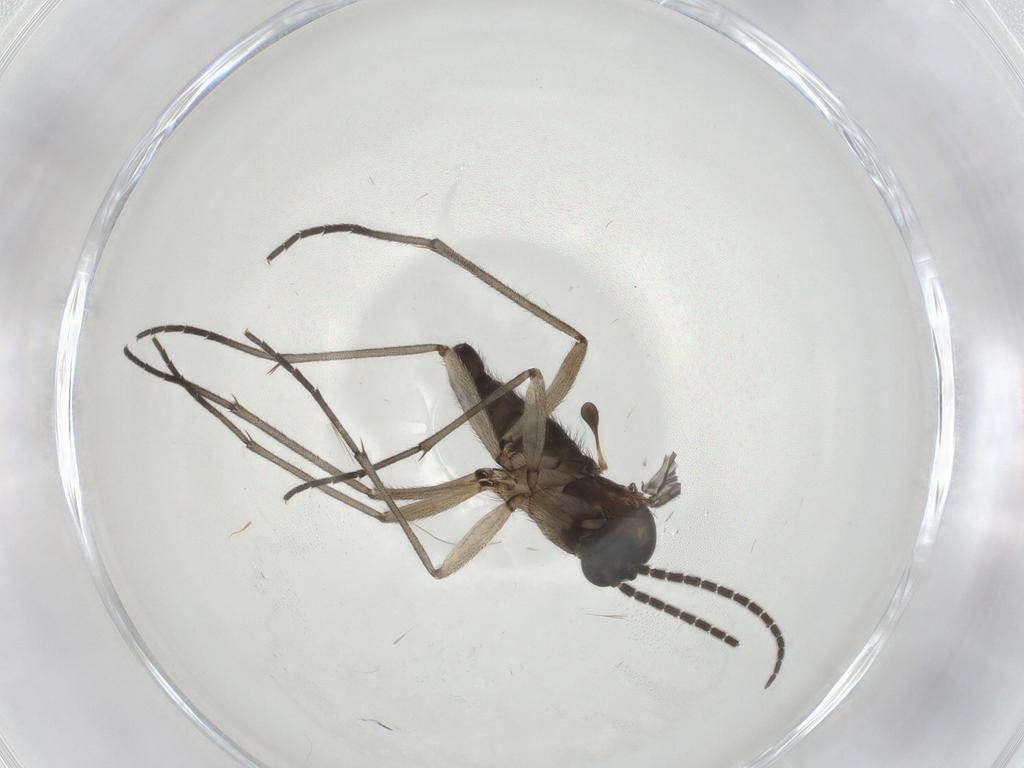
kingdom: Animalia
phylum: Arthropoda
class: Insecta
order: Diptera
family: Sciaridae
